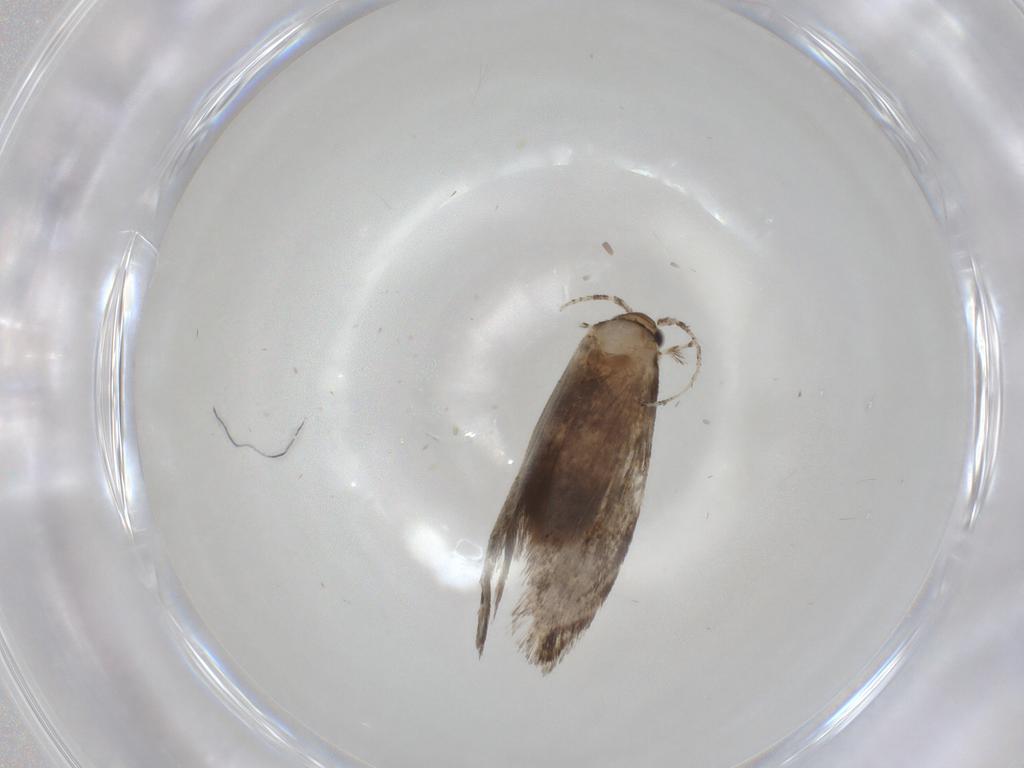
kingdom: Animalia
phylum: Arthropoda
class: Insecta
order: Lepidoptera
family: Tineidae
